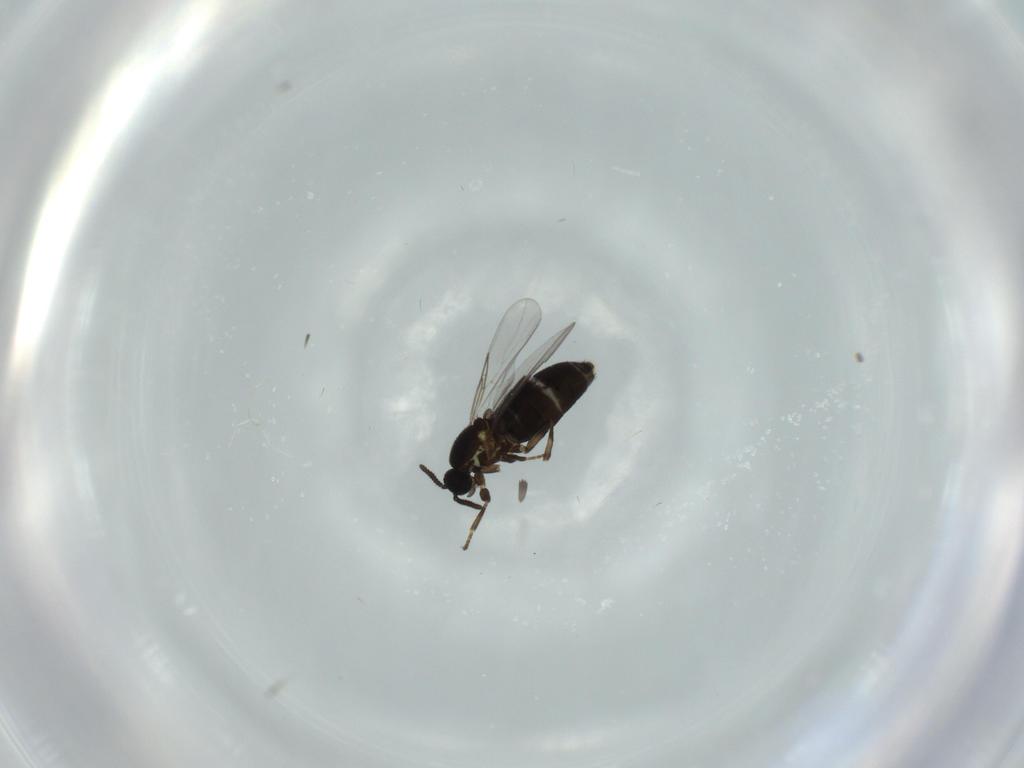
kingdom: Animalia
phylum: Arthropoda
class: Insecta
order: Diptera
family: Scatopsidae
